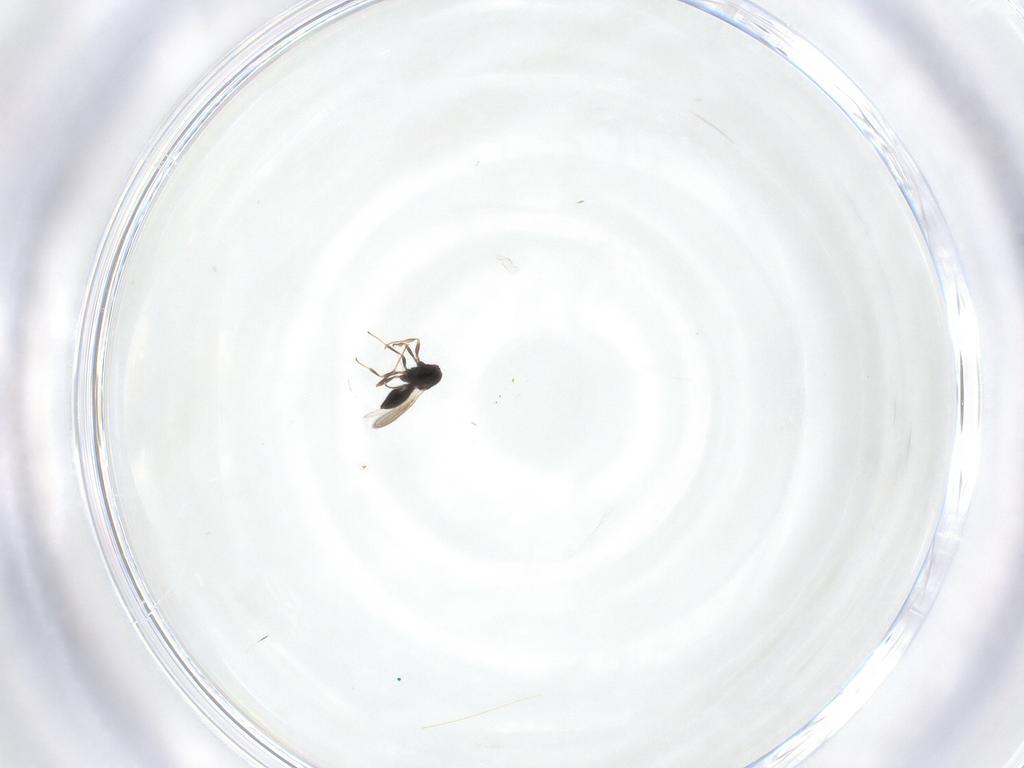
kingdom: Animalia
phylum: Arthropoda
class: Insecta
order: Hymenoptera
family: Scelionidae
